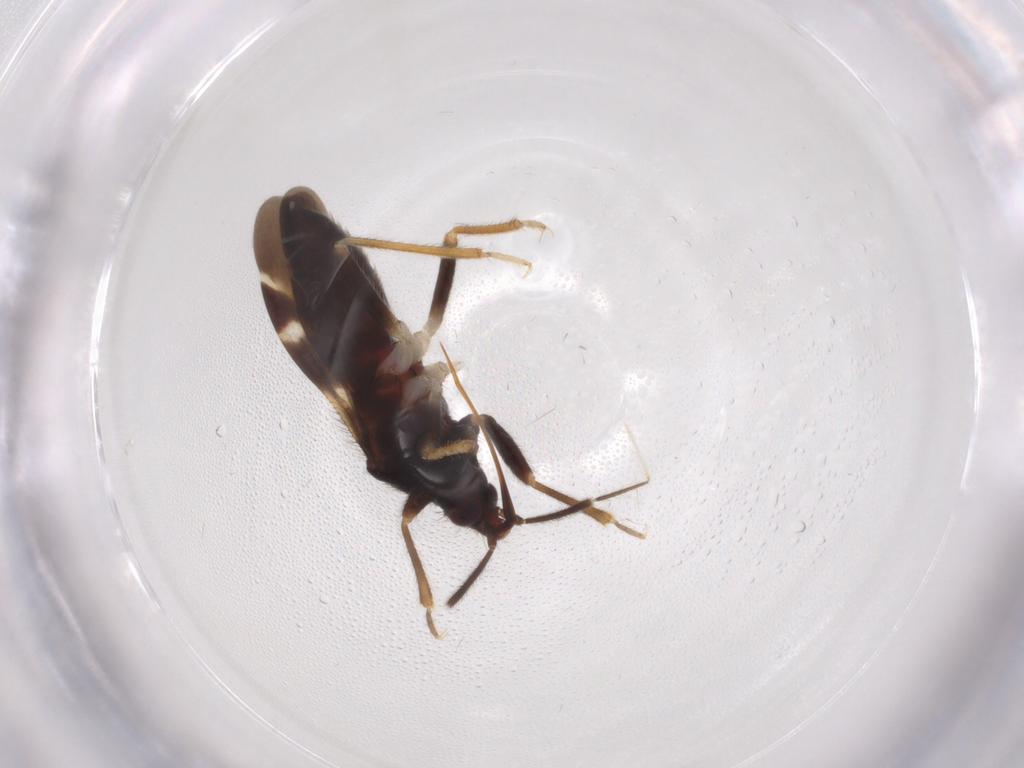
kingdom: Animalia
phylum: Arthropoda
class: Insecta
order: Hemiptera
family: Anthocoridae
